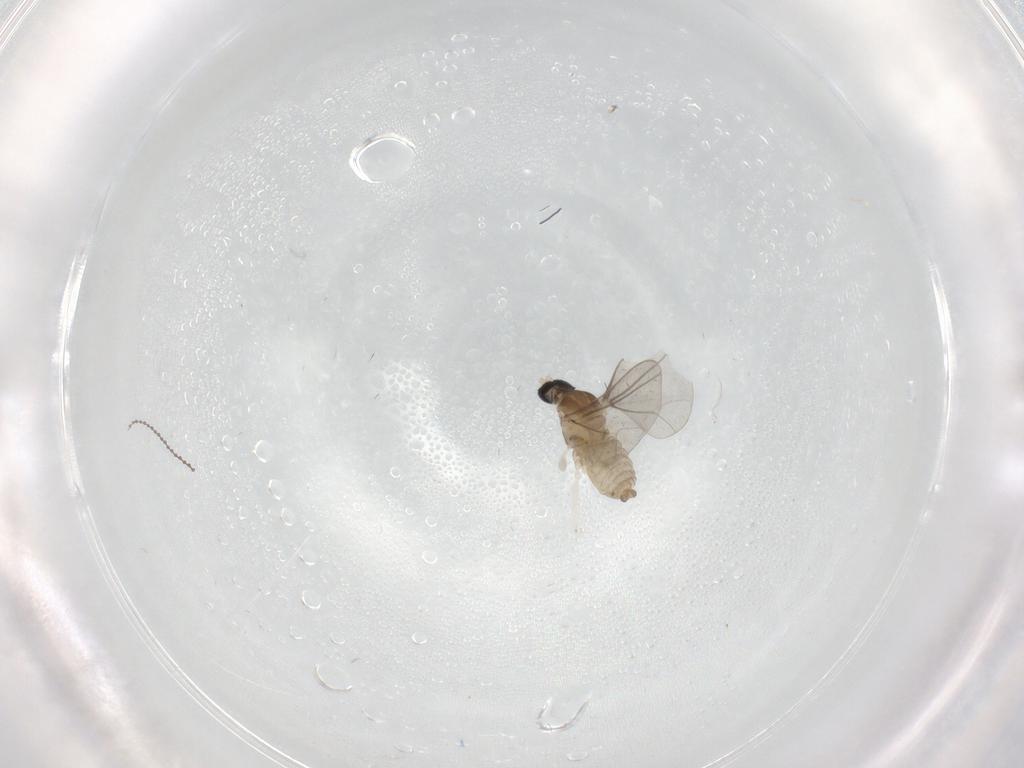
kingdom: Animalia
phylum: Arthropoda
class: Insecta
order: Diptera
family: Cecidomyiidae
